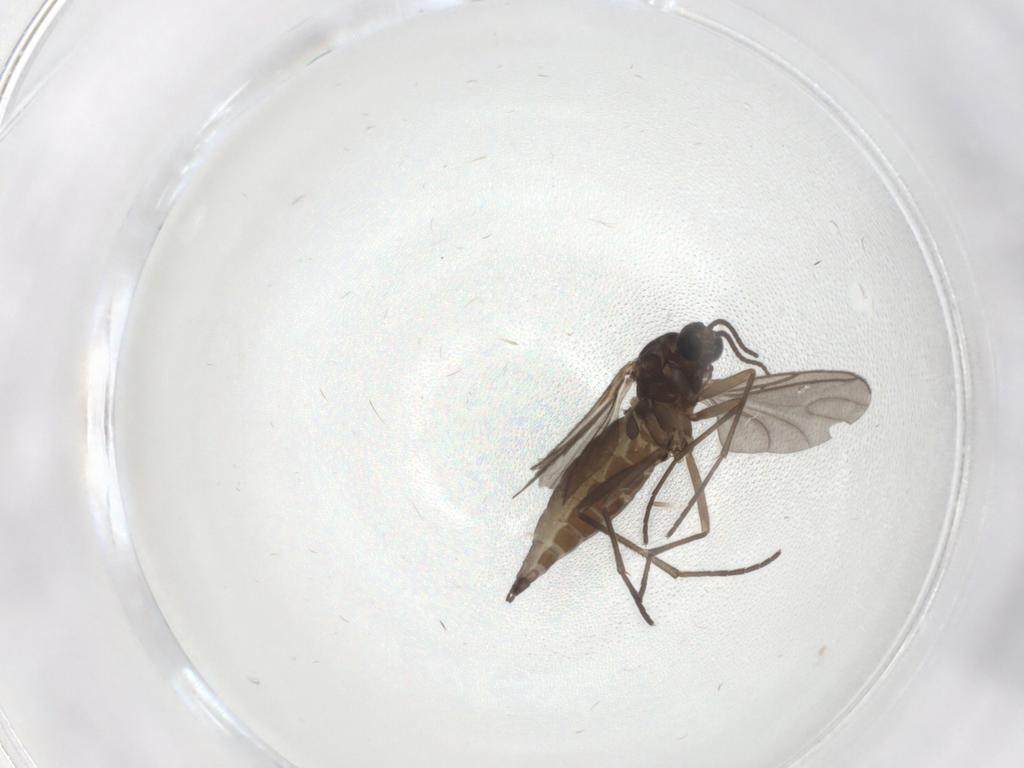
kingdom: Animalia
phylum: Arthropoda
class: Insecta
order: Diptera
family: Sciaridae
